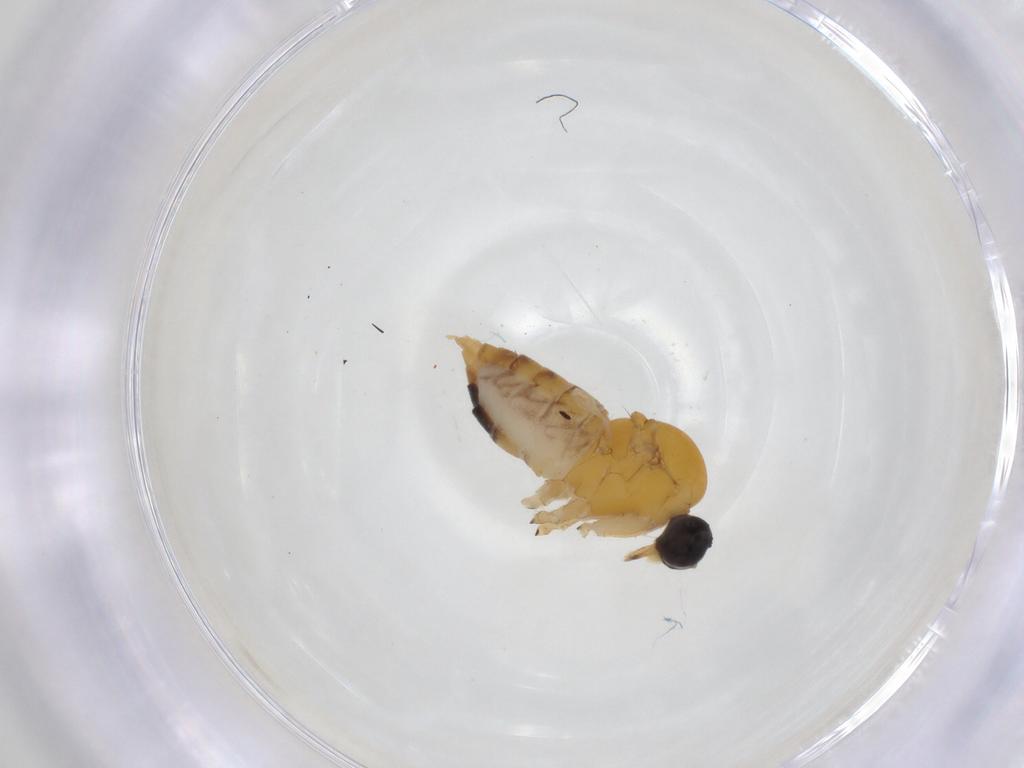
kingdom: Animalia
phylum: Arthropoda
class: Insecta
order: Diptera
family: Hybotidae
